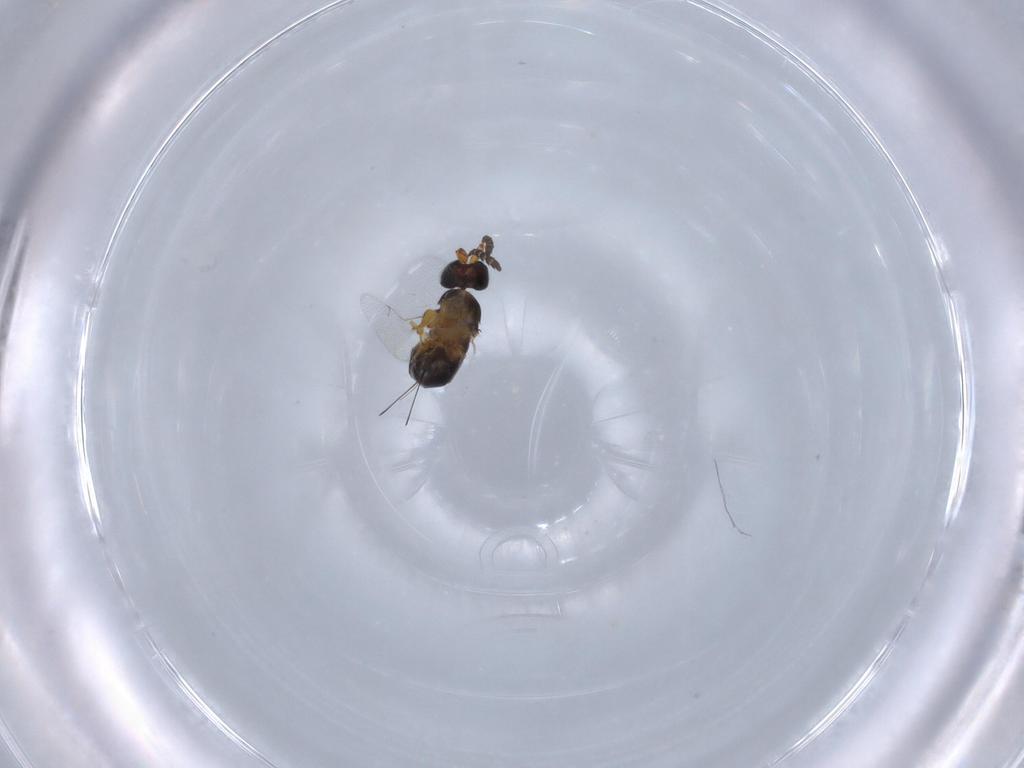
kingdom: Animalia
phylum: Arthropoda
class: Insecta
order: Hymenoptera
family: Agaonidae
